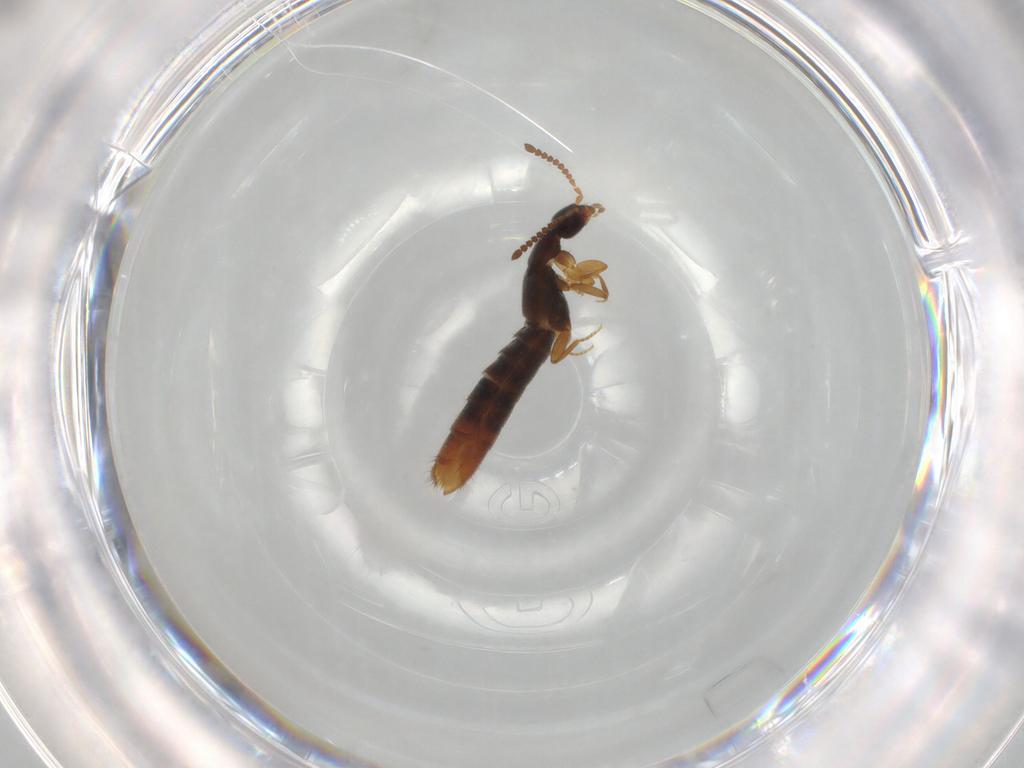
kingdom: Animalia
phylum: Arthropoda
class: Insecta
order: Coleoptera
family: Staphylinidae
